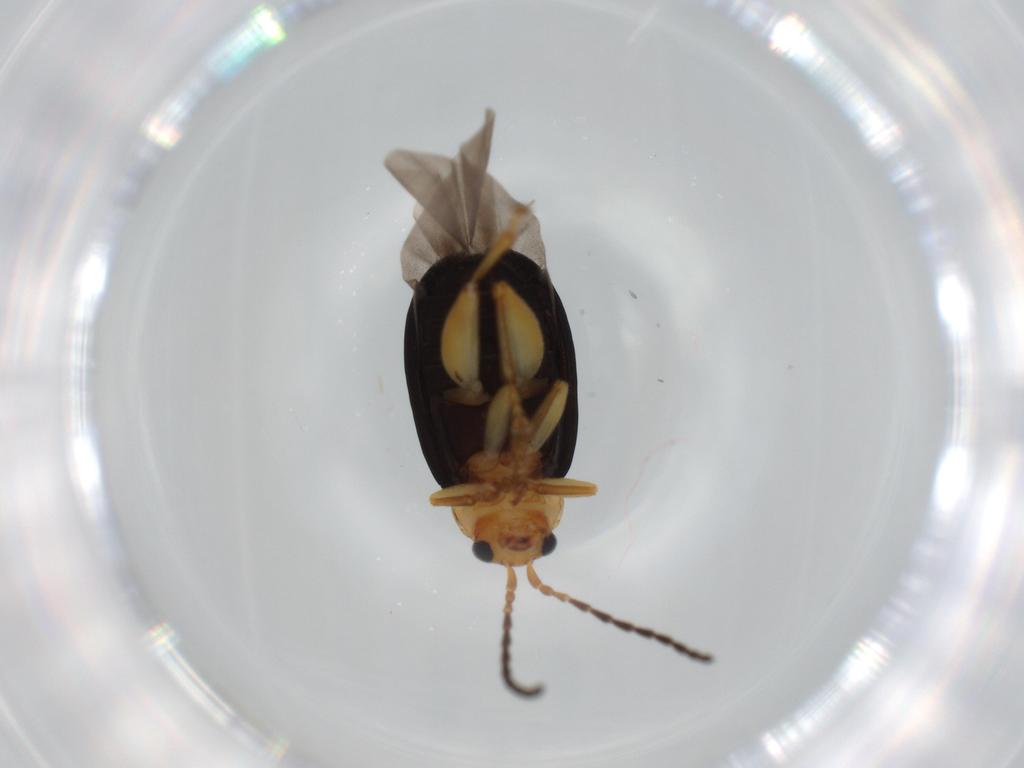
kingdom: Animalia
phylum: Arthropoda
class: Insecta
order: Coleoptera
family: Chrysomelidae
